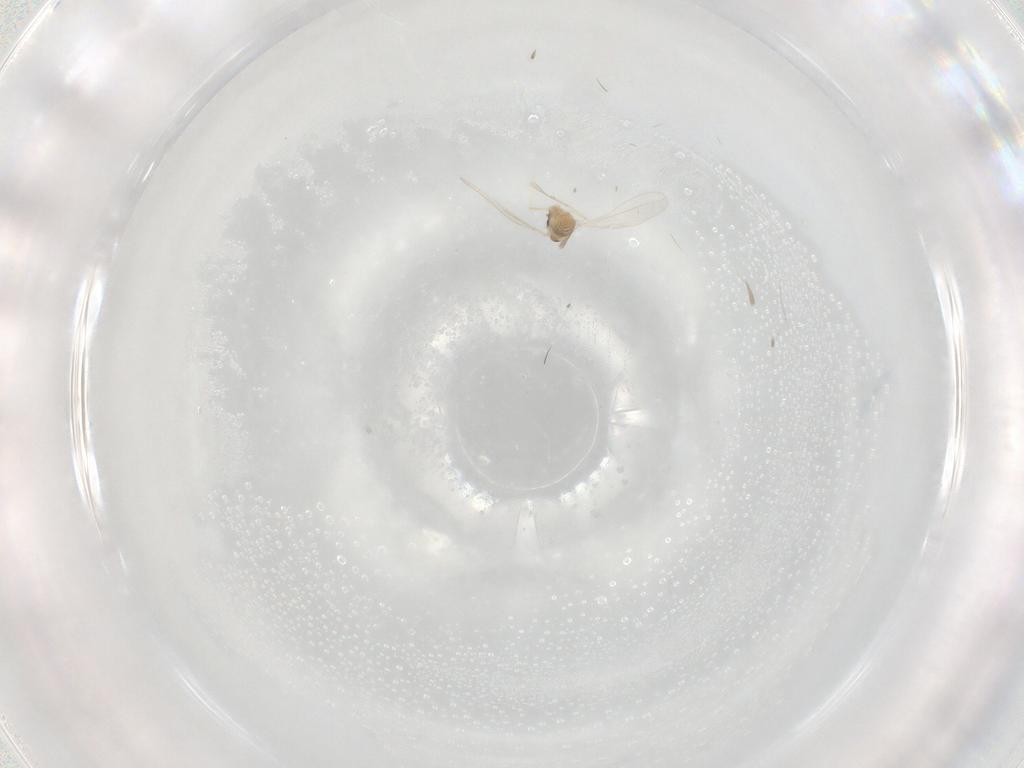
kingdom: Animalia
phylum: Arthropoda
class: Insecta
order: Diptera
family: Cecidomyiidae
